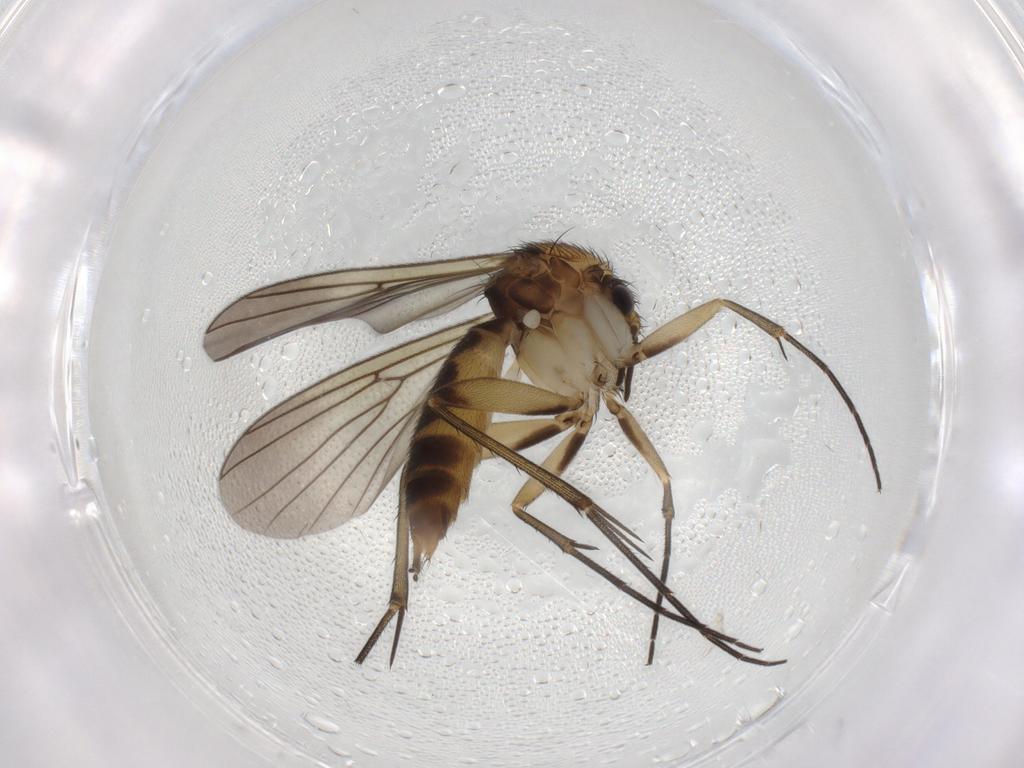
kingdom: Animalia
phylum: Arthropoda
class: Insecta
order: Diptera
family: Mycetophilidae
